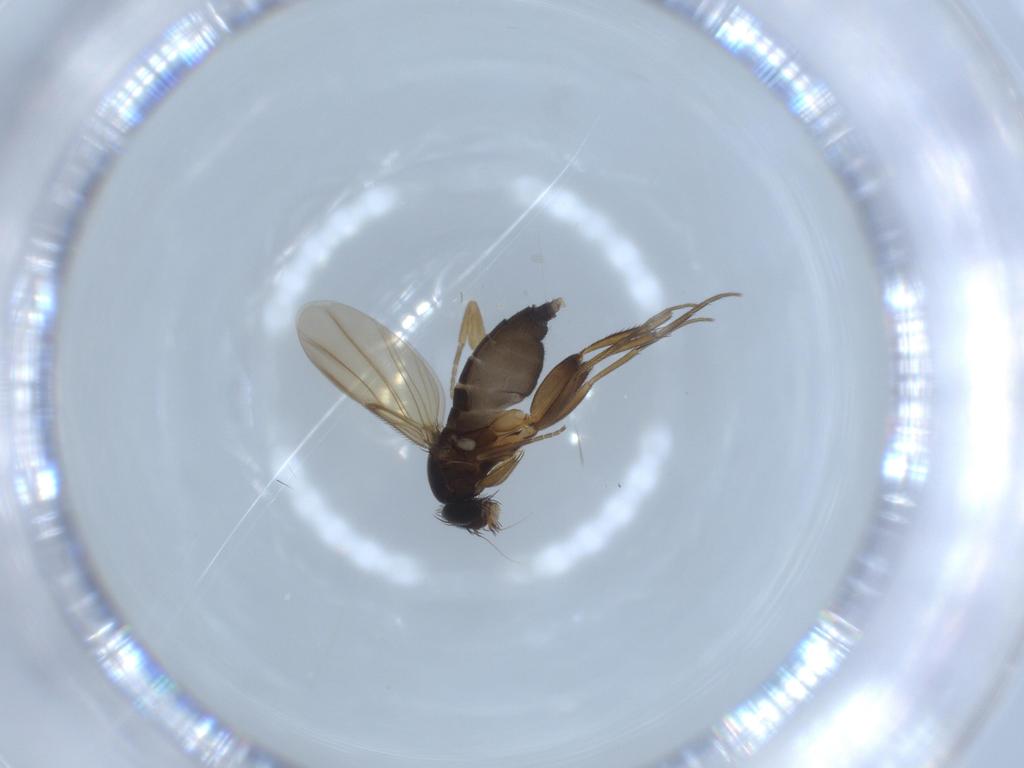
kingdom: Animalia
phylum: Arthropoda
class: Insecta
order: Diptera
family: Phoridae
